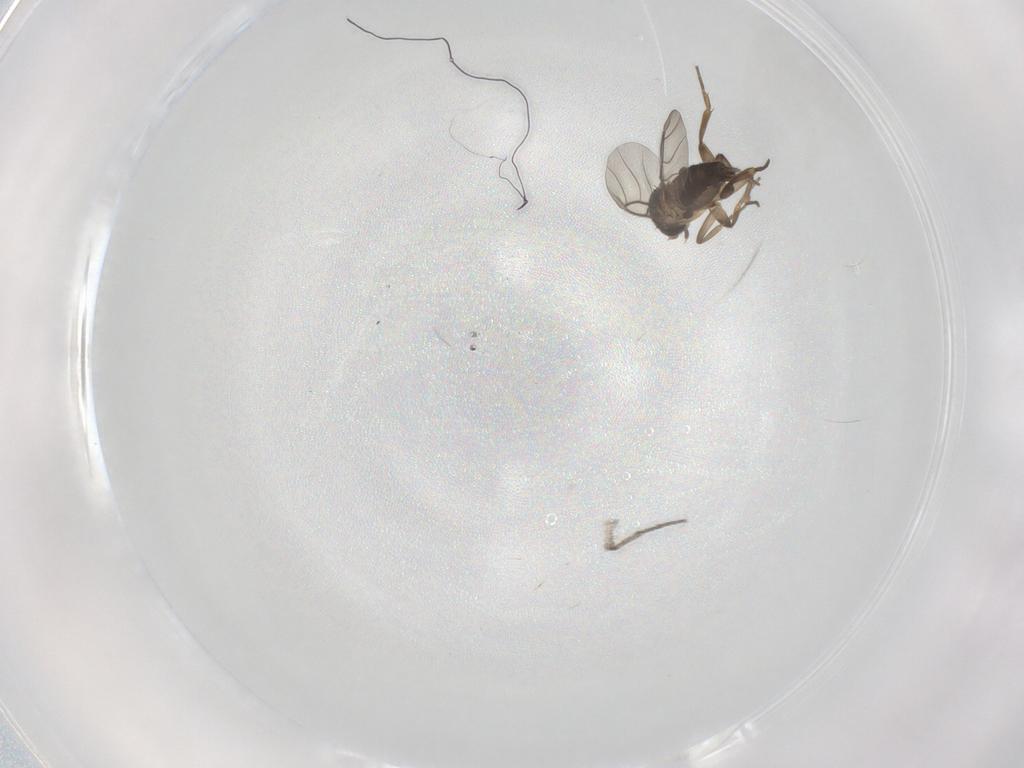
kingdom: Animalia
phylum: Arthropoda
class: Insecta
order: Diptera
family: Sciaridae
